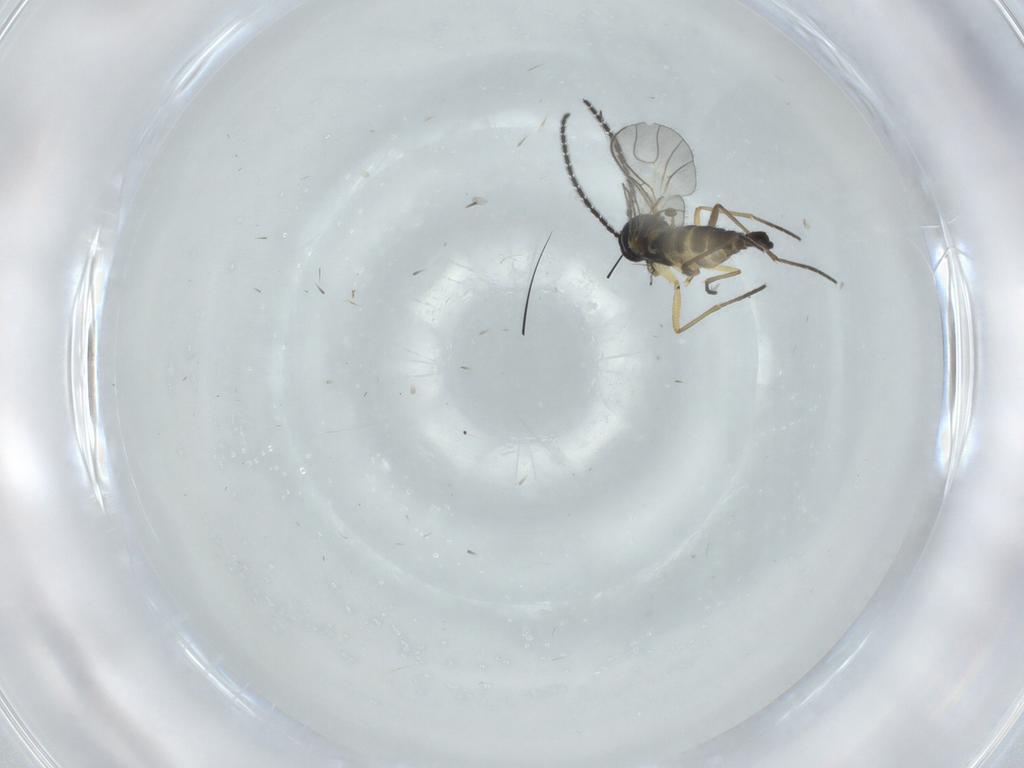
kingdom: Animalia
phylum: Arthropoda
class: Insecta
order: Diptera
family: Sciaridae
